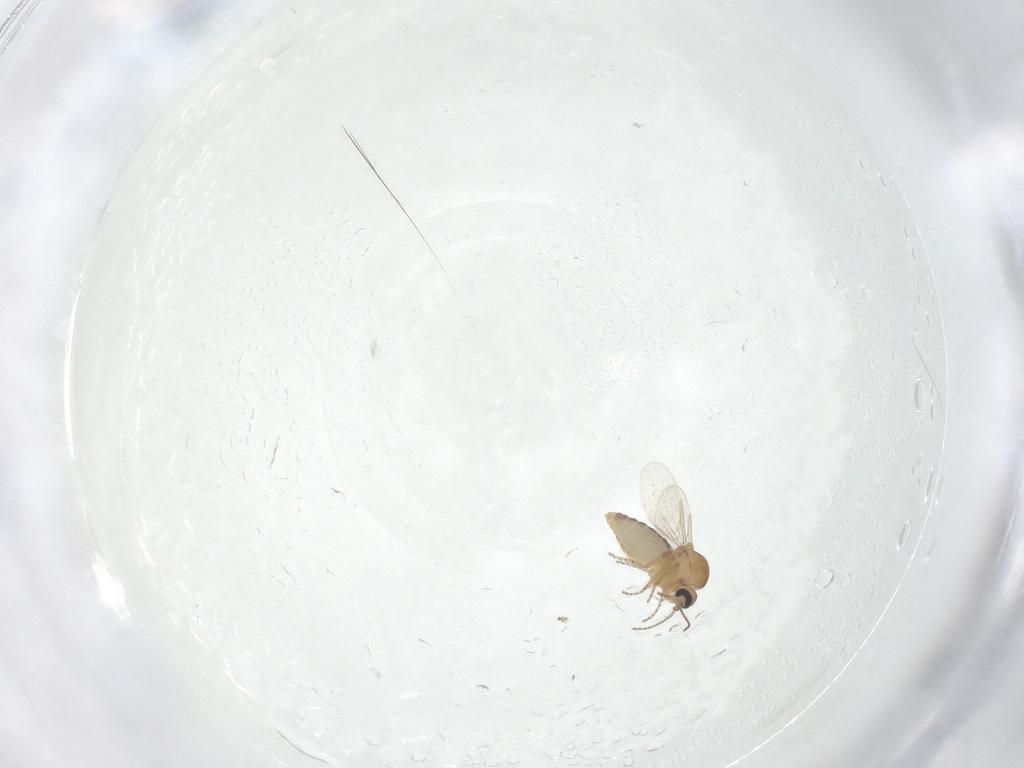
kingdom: Animalia
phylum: Arthropoda
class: Insecta
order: Diptera
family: Ceratopogonidae
